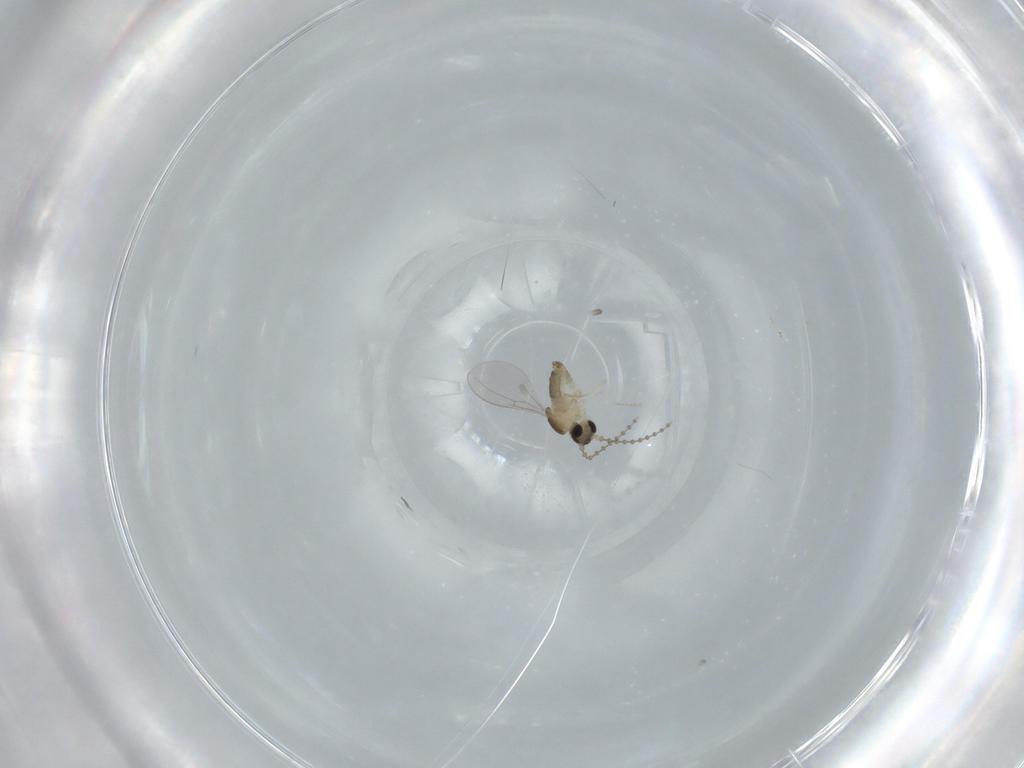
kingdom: Animalia
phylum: Arthropoda
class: Insecta
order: Diptera
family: Cecidomyiidae
